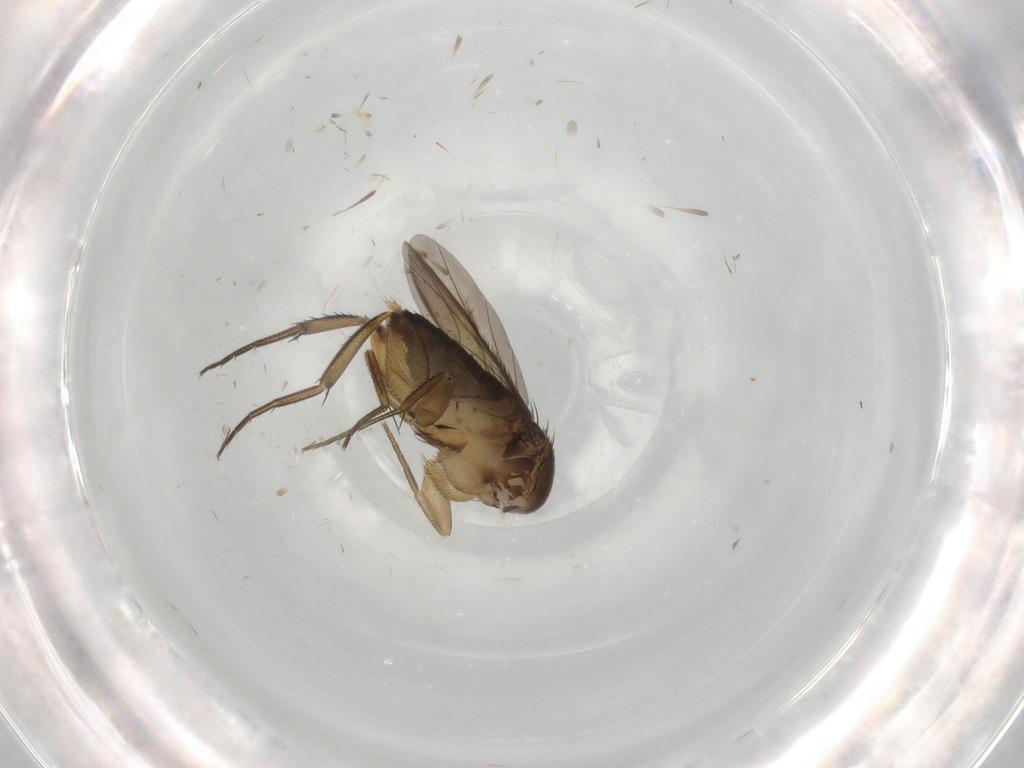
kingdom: Animalia
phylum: Arthropoda
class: Insecta
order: Diptera
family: Phoridae
